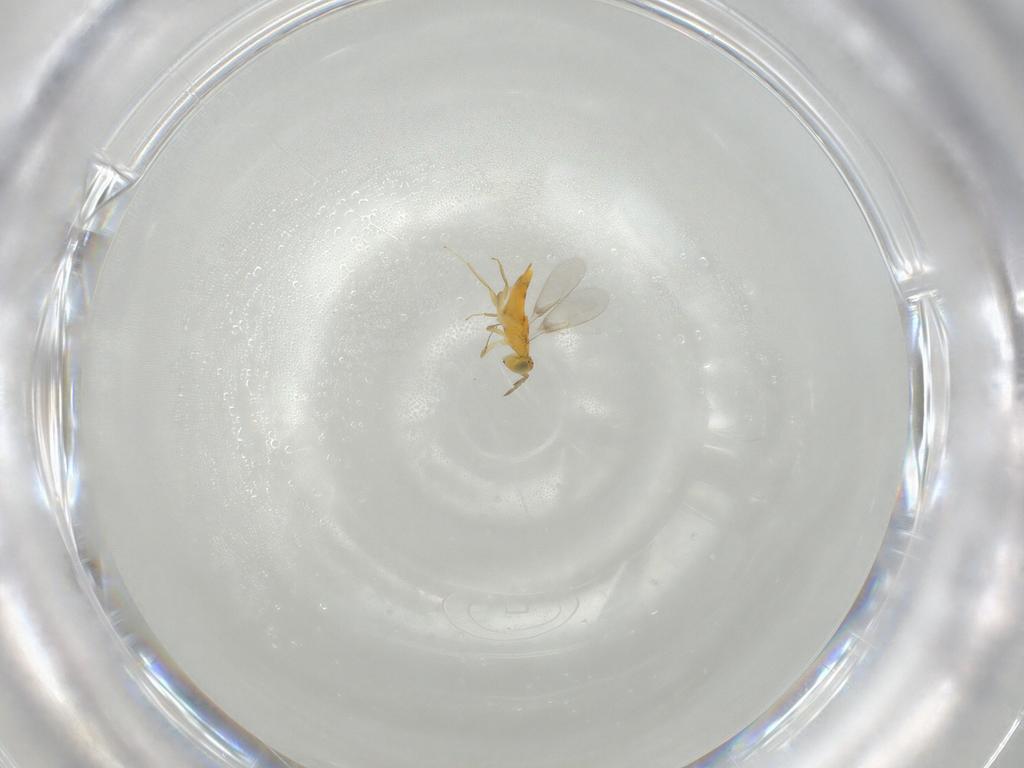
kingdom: Animalia
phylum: Arthropoda
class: Insecta
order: Hymenoptera
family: Aphelinidae
